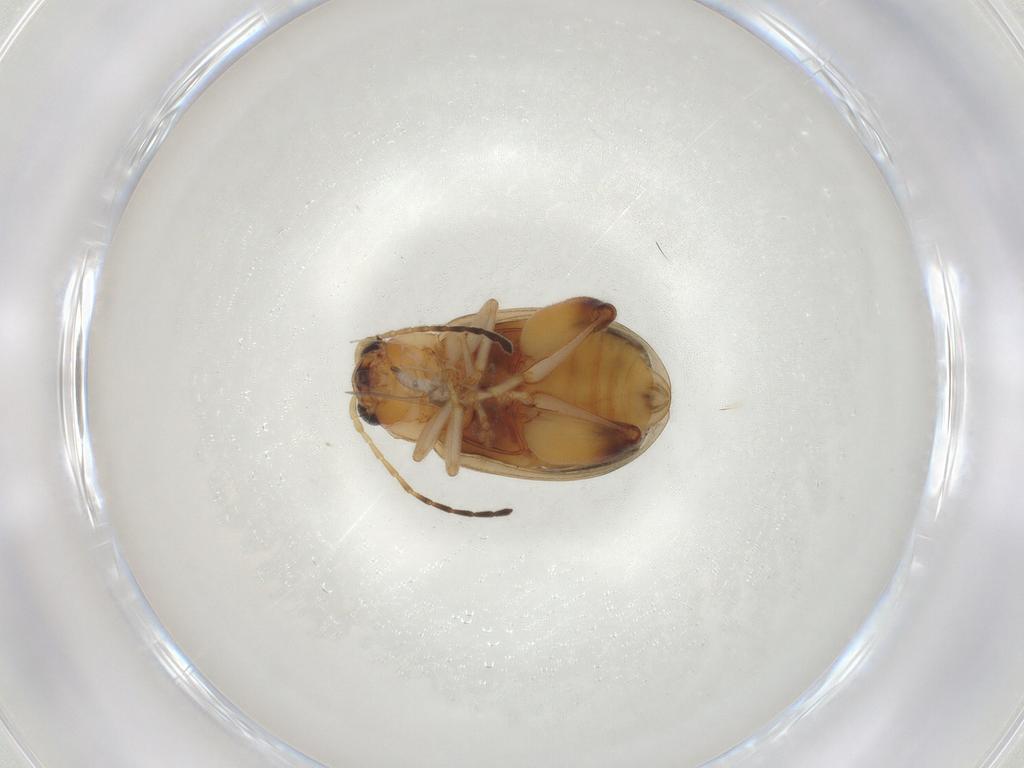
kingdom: Animalia
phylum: Arthropoda
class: Insecta
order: Coleoptera
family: Chrysomelidae
